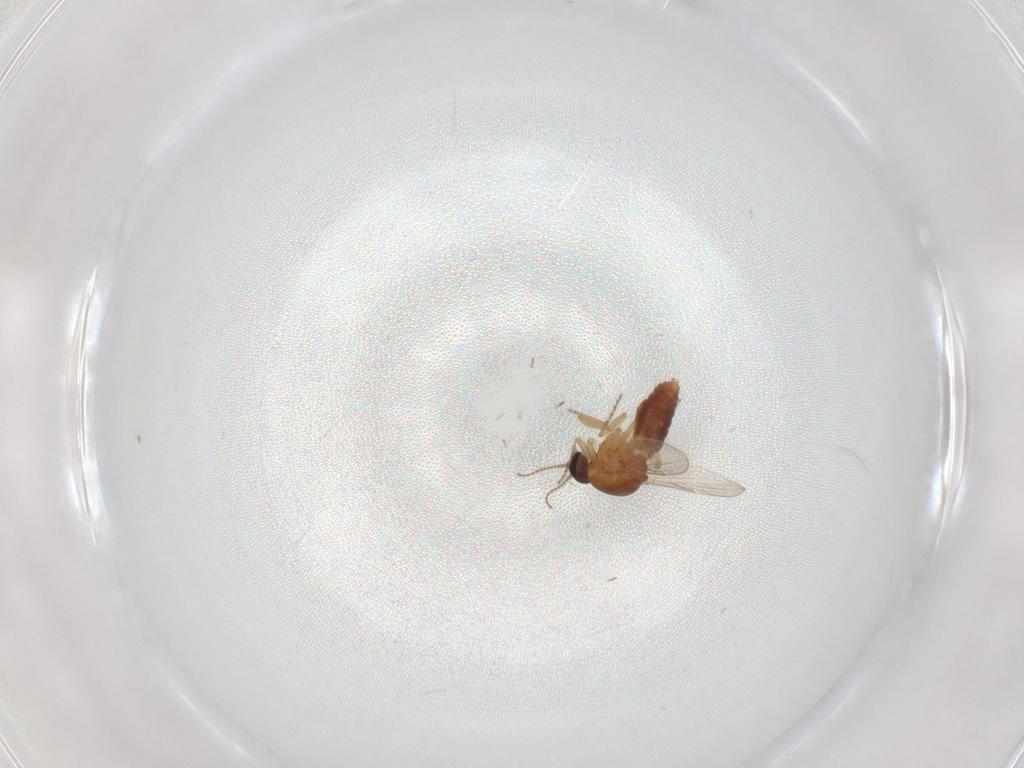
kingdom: Animalia
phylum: Arthropoda
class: Insecta
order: Diptera
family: Ceratopogonidae
